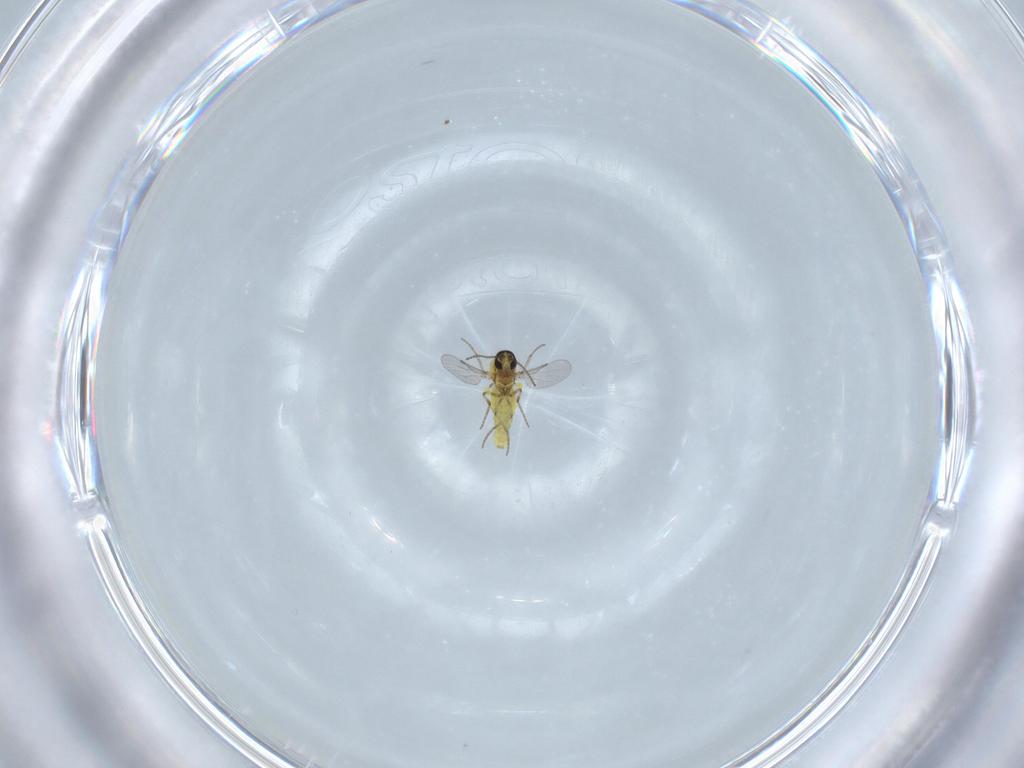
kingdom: Animalia
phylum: Arthropoda
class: Insecta
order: Diptera
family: Ceratopogonidae
